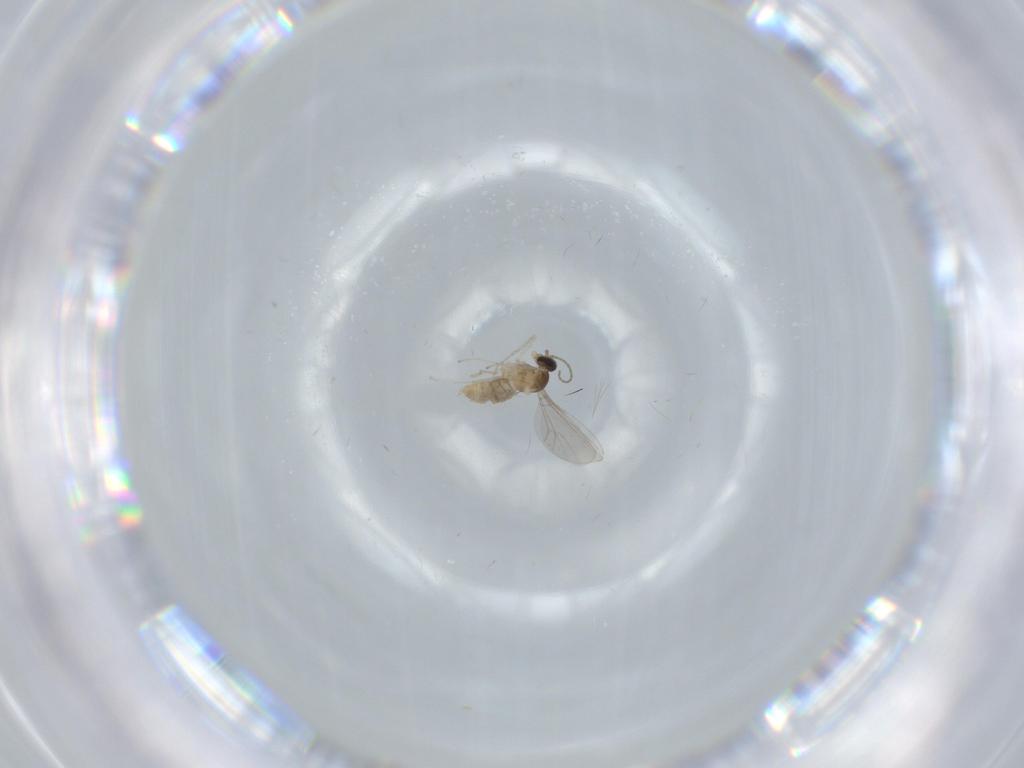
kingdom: Animalia
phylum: Arthropoda
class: Insecta
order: Diptera
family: Cecidomyiidae
